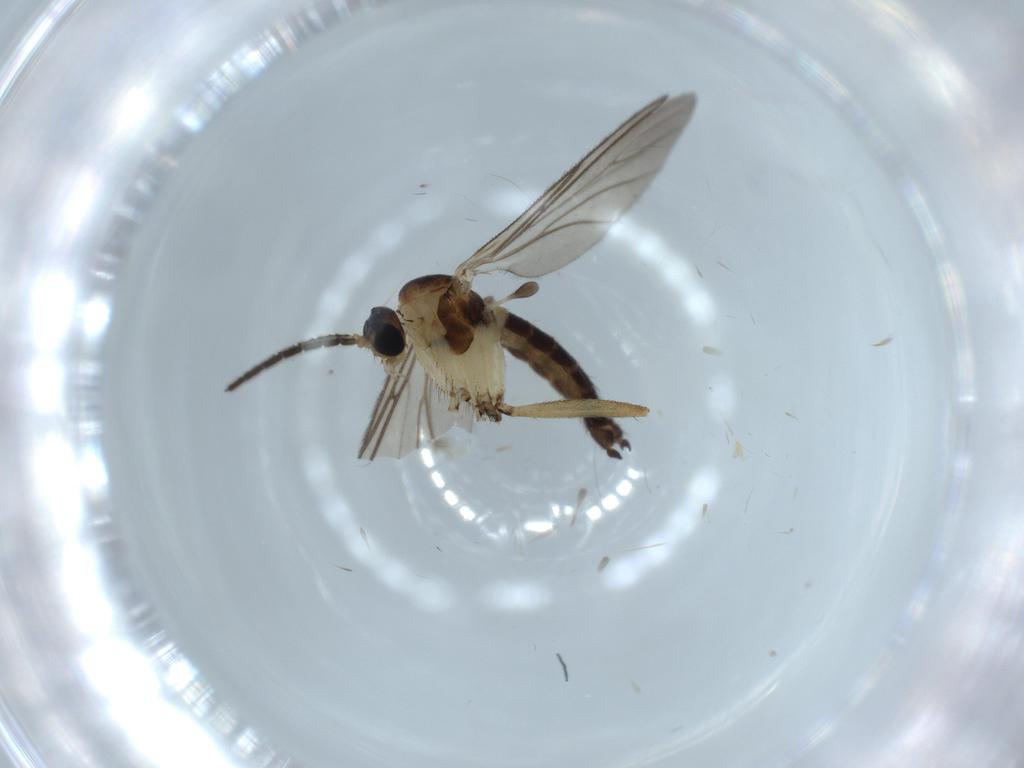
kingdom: Animalia
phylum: Arthropoda
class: Insecta
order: Diptera
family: Sciaridae
